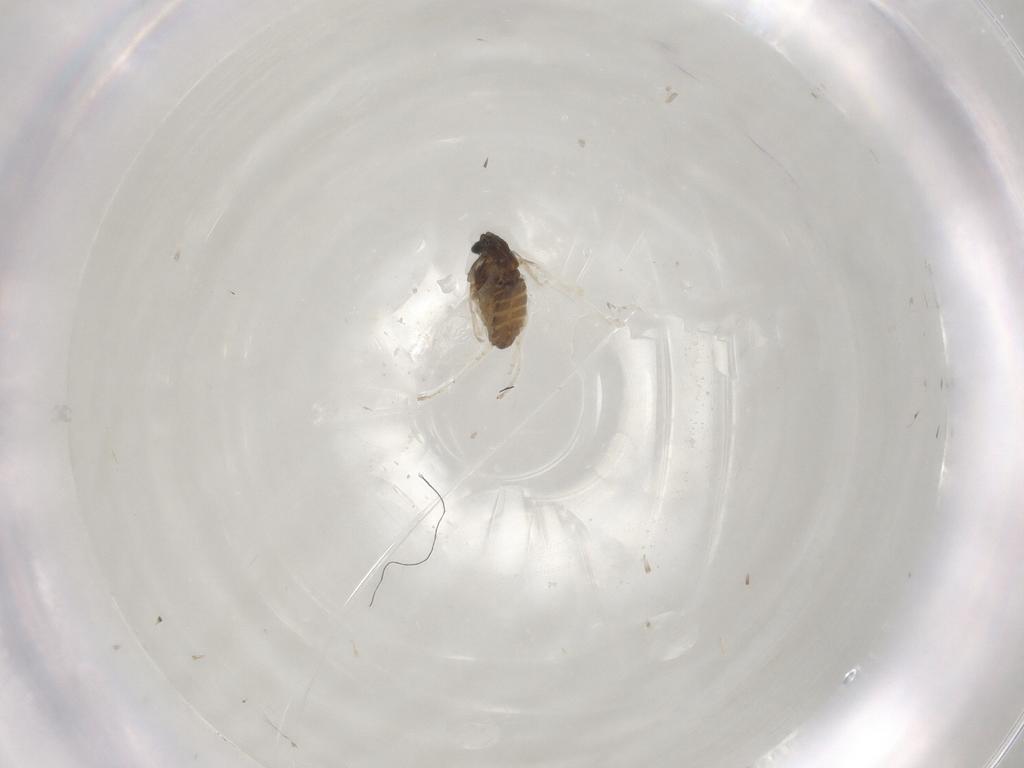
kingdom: Animalia
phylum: Arthropoda
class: Insecta
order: Diptera
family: Cecidomyiidae
